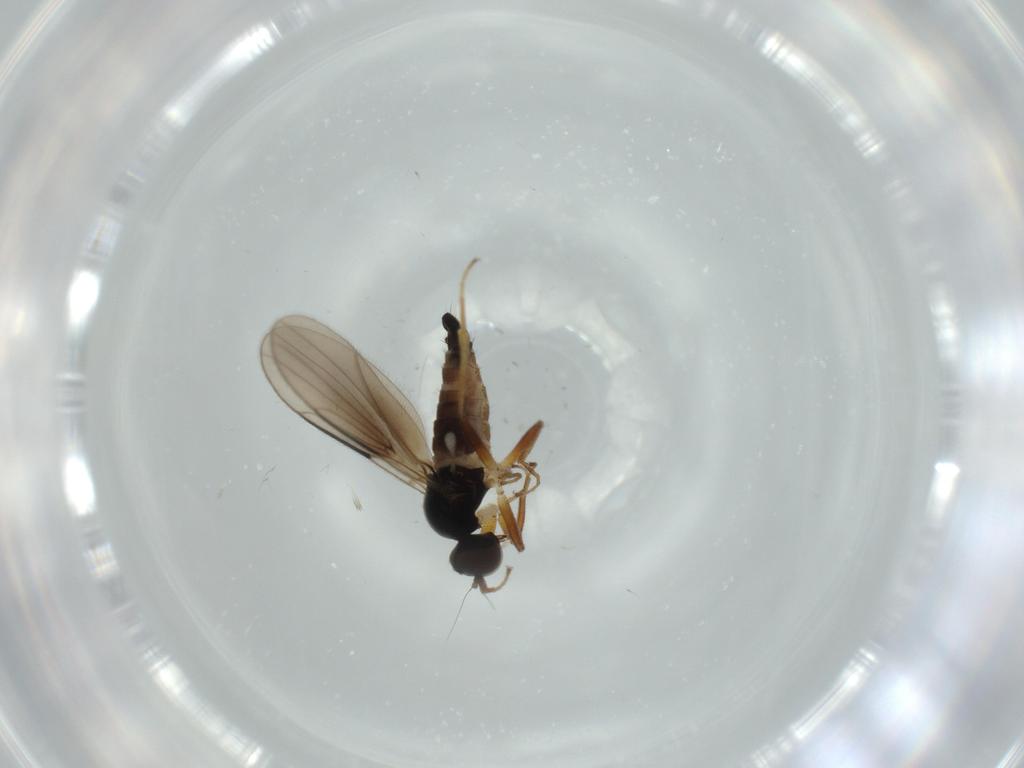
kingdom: Animalia
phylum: Arthropoda
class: Insecta
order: Diptera
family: Hybotidae
